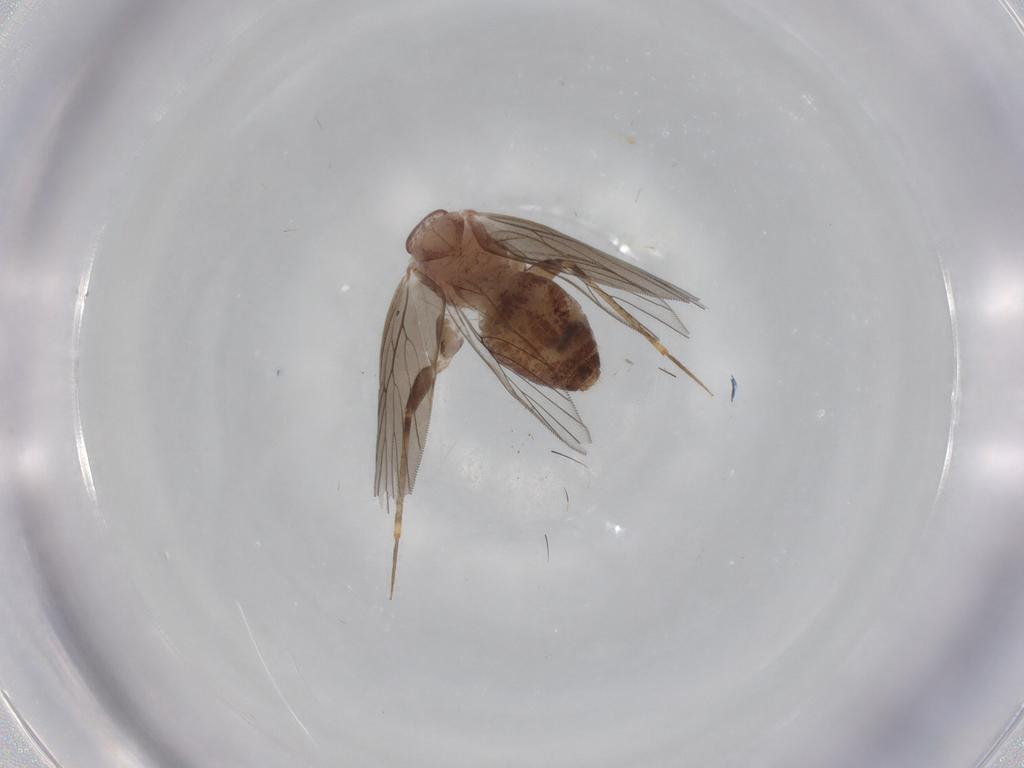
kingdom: Animalia
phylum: Arthropoda
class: Insecta
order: Psocodea
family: Lepidopsocidae
